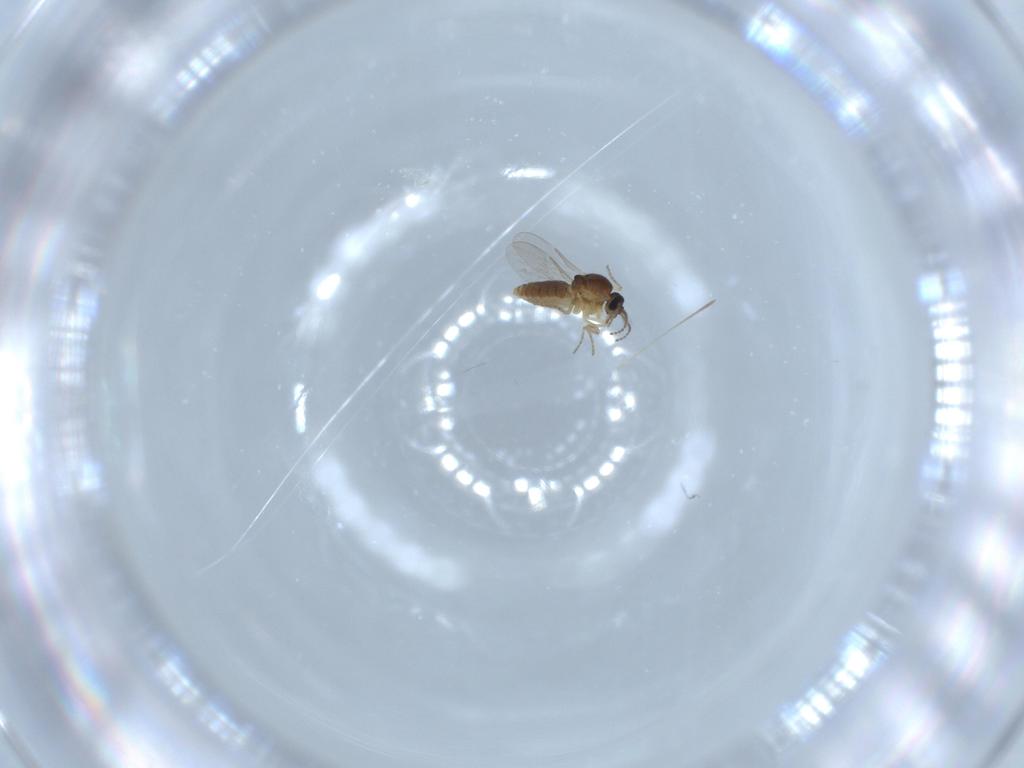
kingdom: Animalia
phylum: Arthropoda
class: Insecta
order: Diptera
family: Ceratopogonidae
